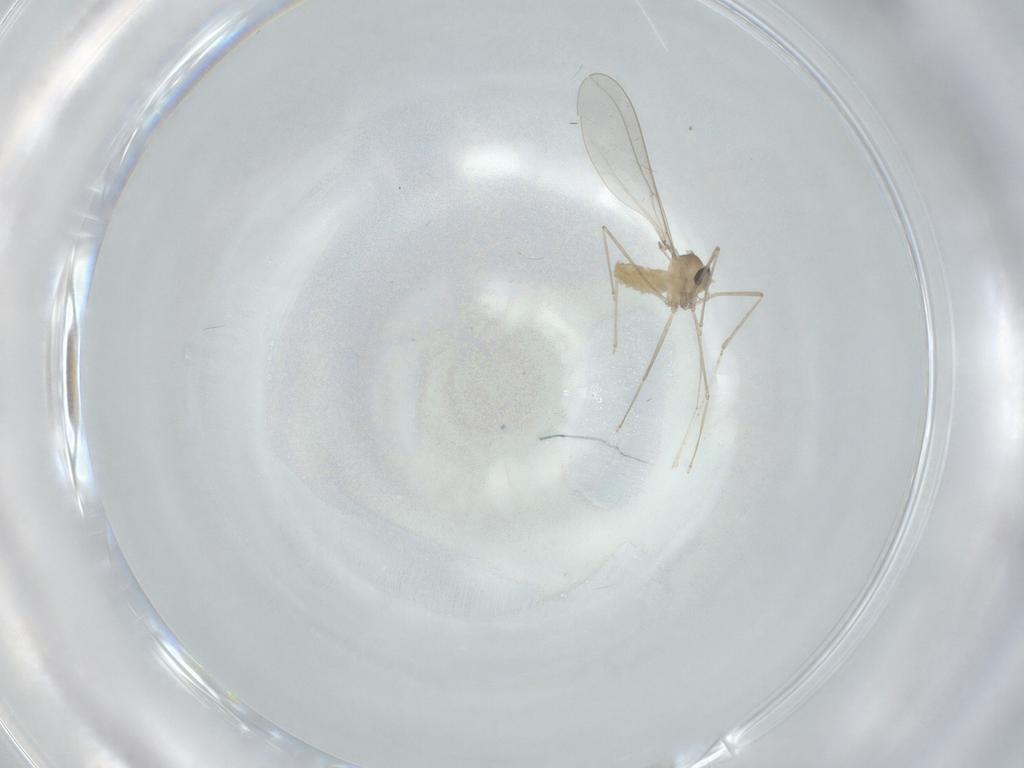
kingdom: Animalia
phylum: Arthropoda
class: Insecta
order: Diptera
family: Cecidomyiidae
